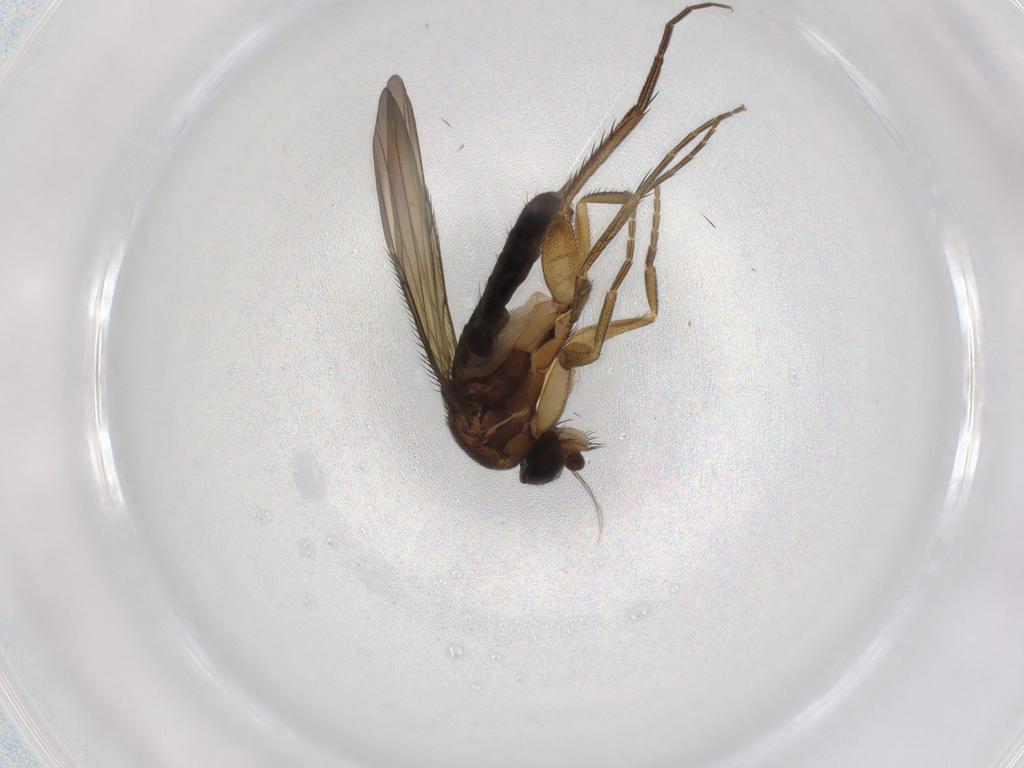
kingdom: Animalia
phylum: Arthropoda
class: Insecta
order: Diptera
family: Phoridae
